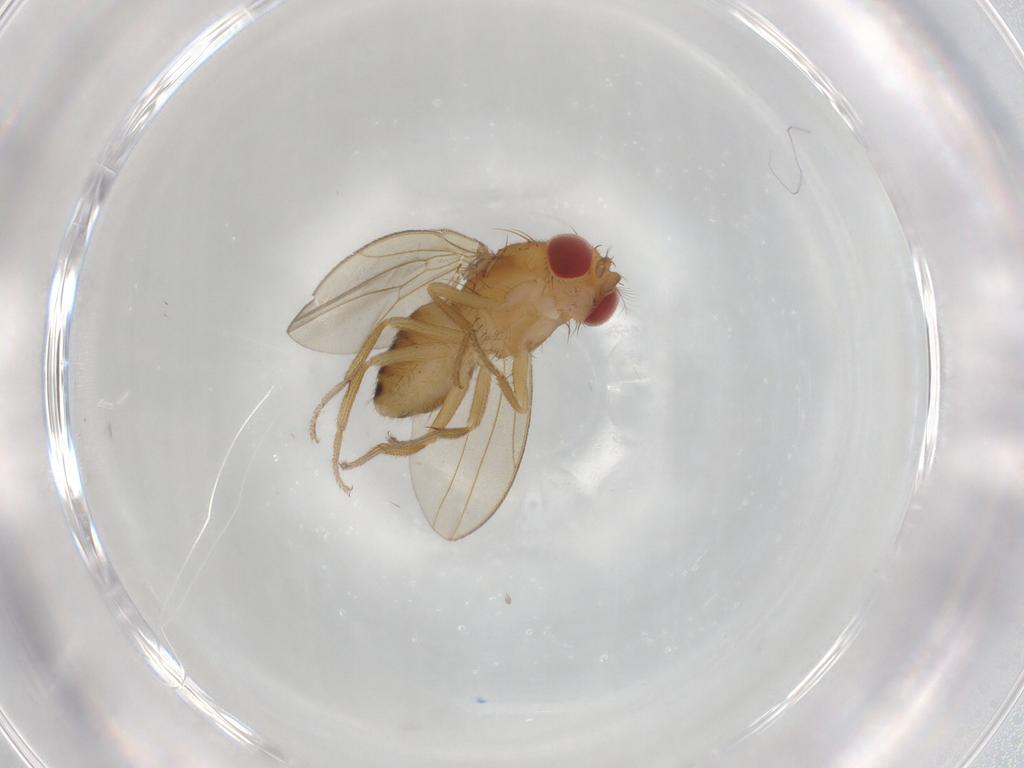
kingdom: Animalia
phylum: Arthropoda
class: Insecta
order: Diptera
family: Drosophilidae
